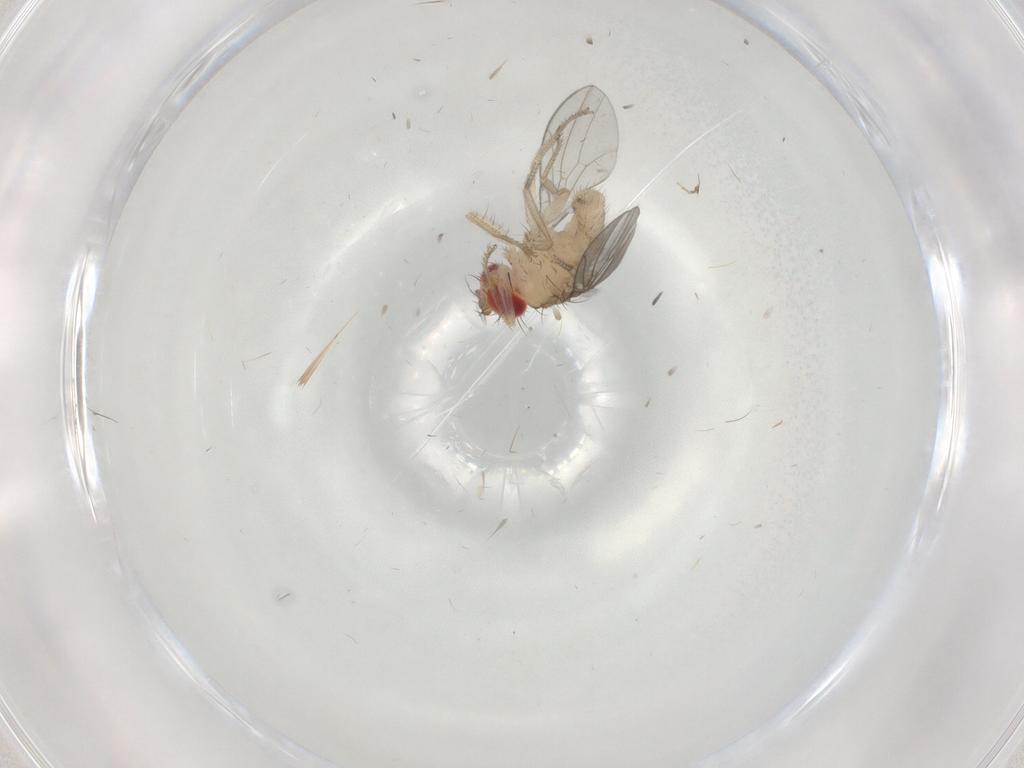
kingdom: Animalia
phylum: Arthropoda
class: Insecta
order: Diptera
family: Drosophilidae
